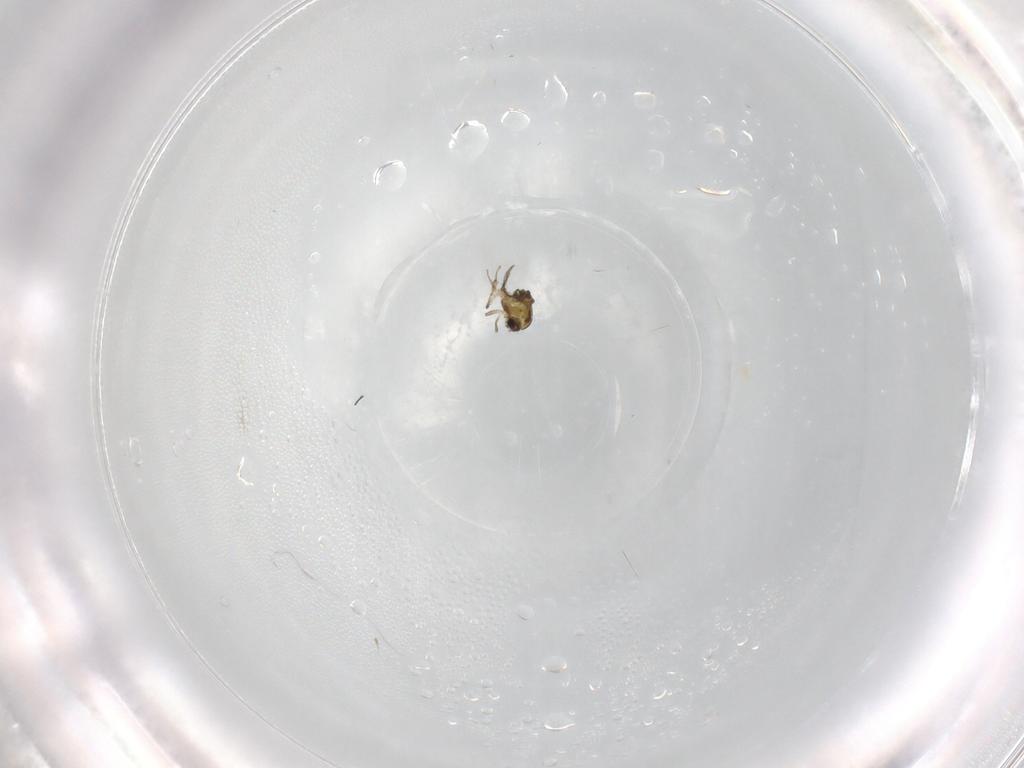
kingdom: Animalia
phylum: Arthropoda
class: Insecta
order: Diptera
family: Chironomidae
